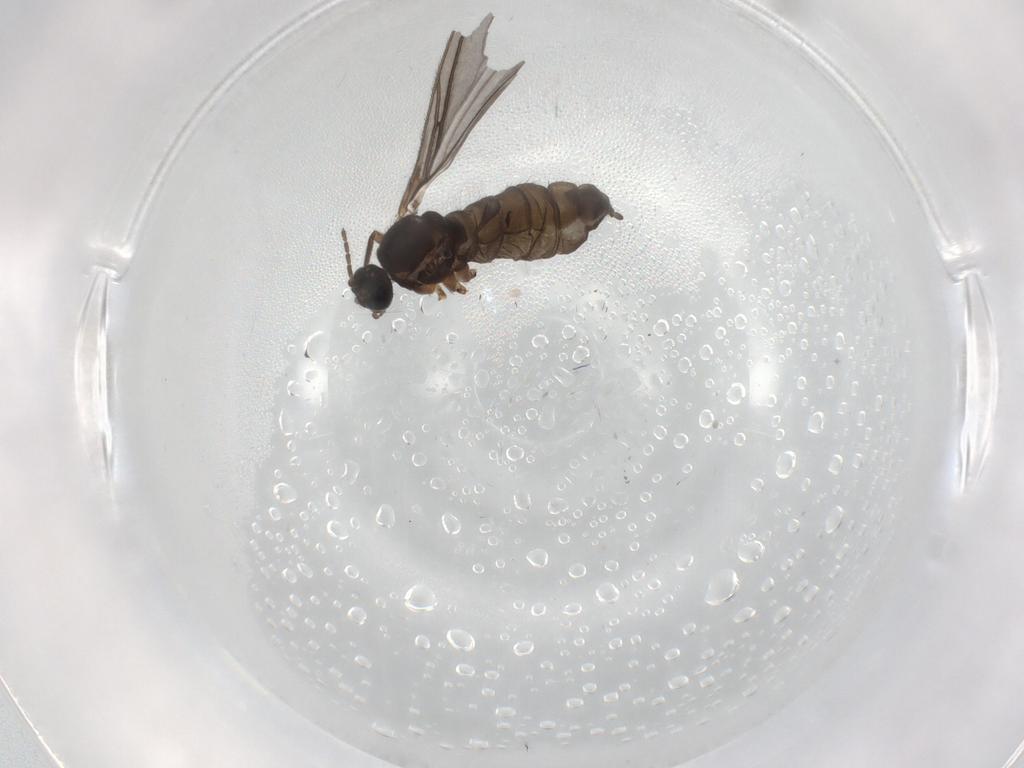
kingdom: Animalia
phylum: Arthropoda
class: Insecta
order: Diptera
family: Sciaridae
